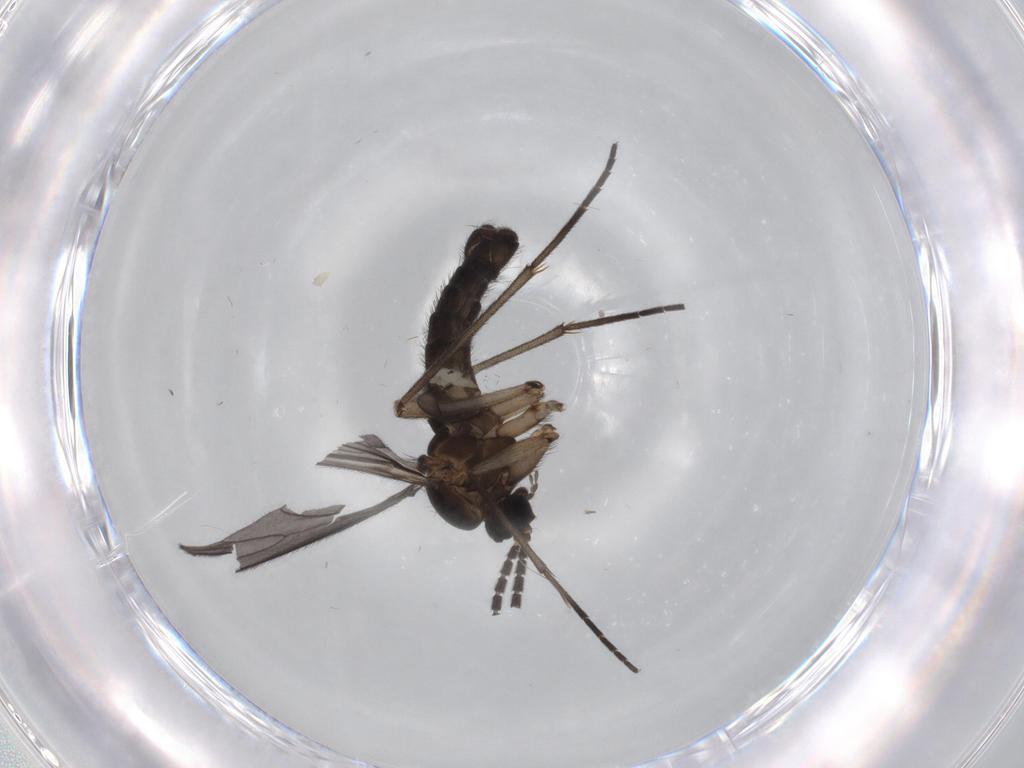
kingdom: Animalia
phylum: Arthropoda
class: Insecta
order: Diptera
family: Sciaridae
